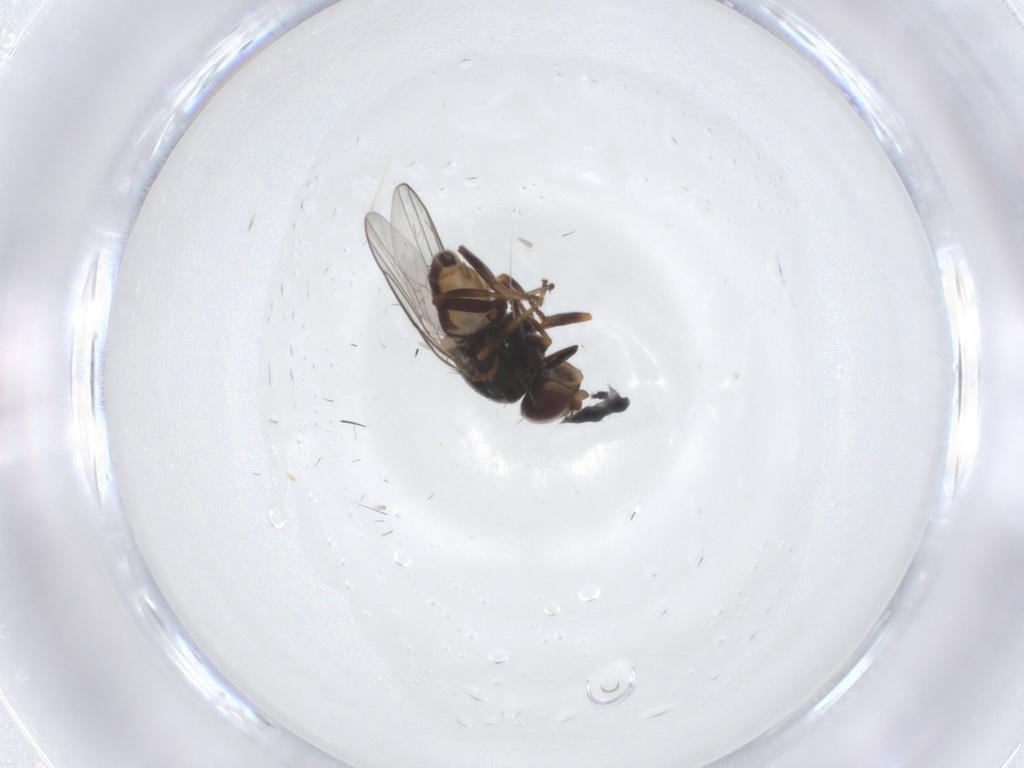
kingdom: Animalia
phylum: Arthropoda
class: Insecta
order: Diptera
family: Chloropidae
